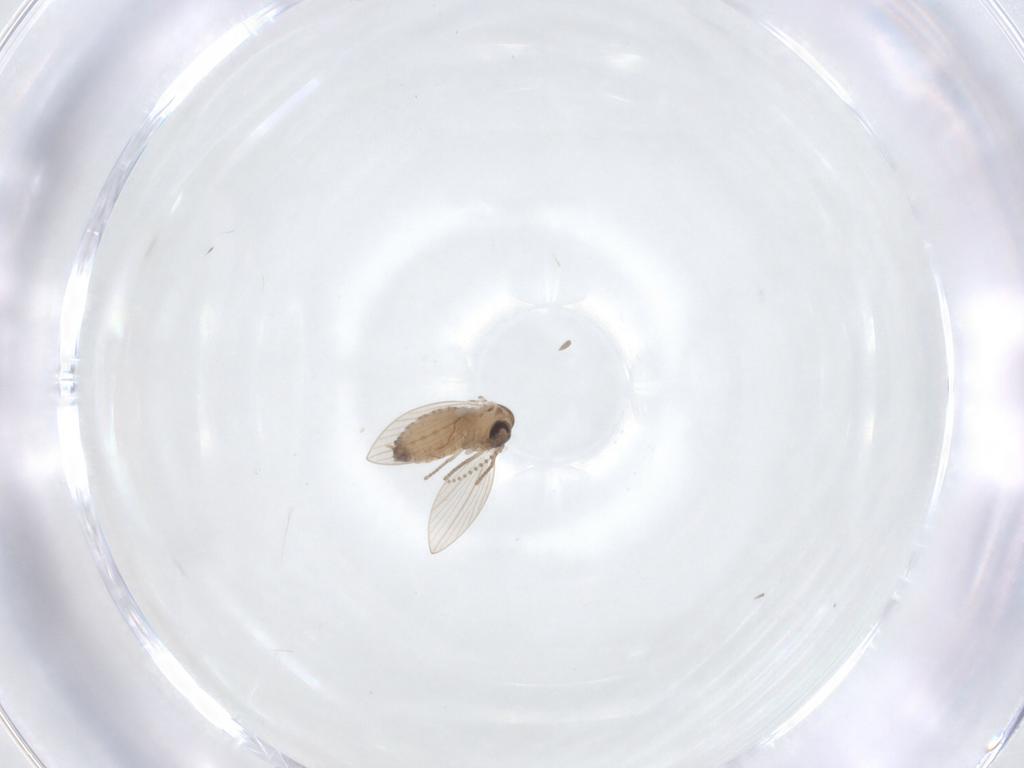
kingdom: Animalia
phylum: Arthropoda
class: Insecta
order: Diptera
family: Psychodidae
